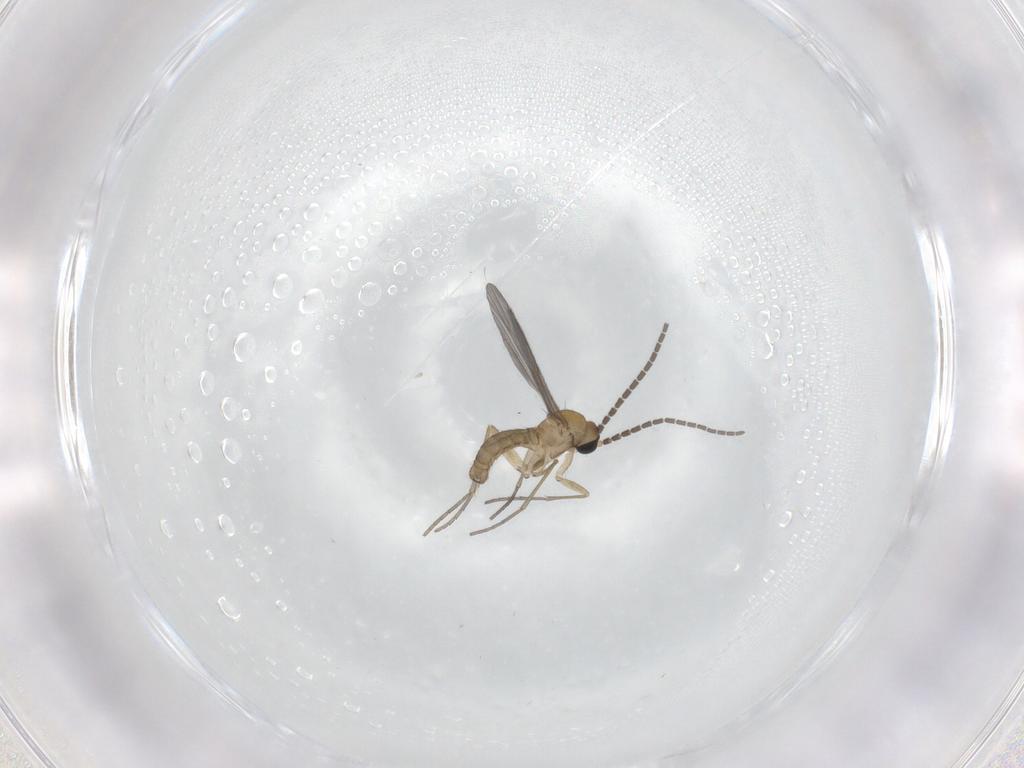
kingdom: Animalia
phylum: Arthropoda
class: Insecta
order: Diptera
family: Sciaridae
